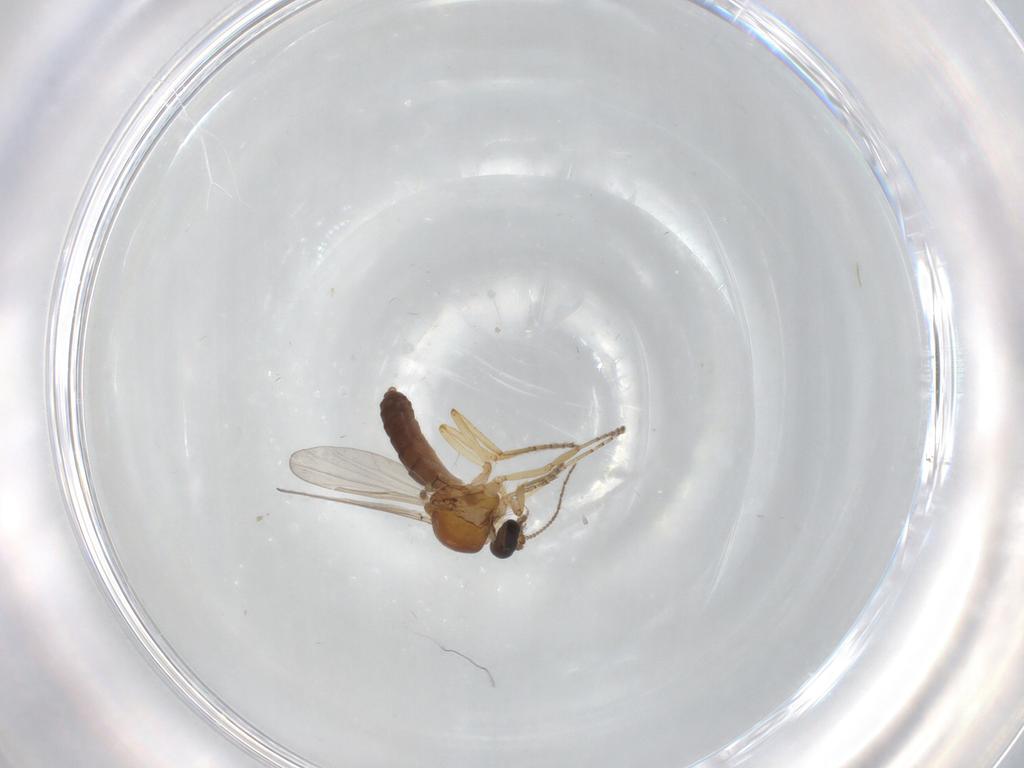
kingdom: Animalia
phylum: Arthropoda
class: Insecta
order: Diptera
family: Ceratopogonidae
